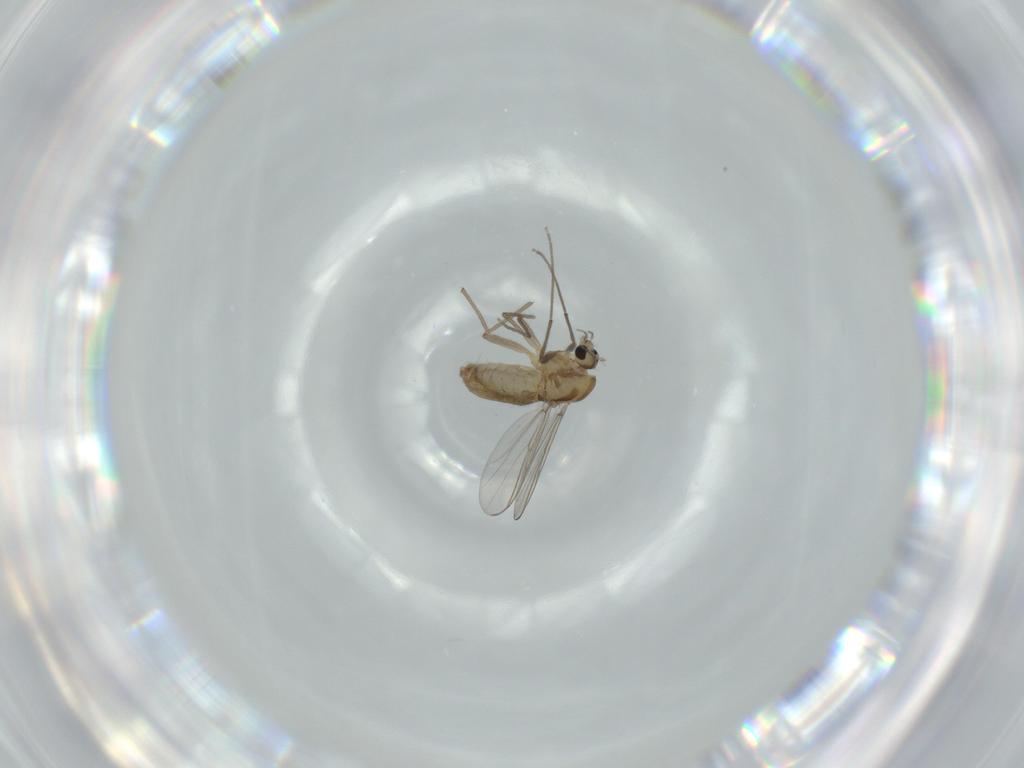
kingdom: Animalia
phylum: Arthropoda
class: Insecta
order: Diptera
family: Chironomidae
